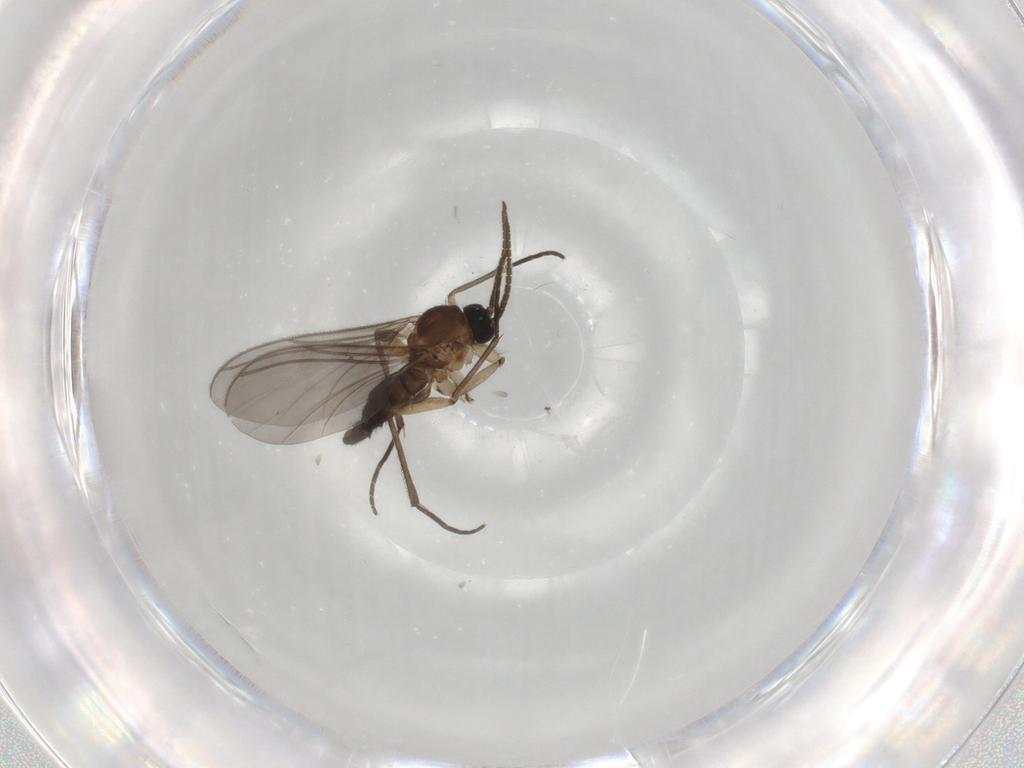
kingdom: Animalia
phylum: Arthropoda
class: Insecta
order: Diptera
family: Sciaridae
